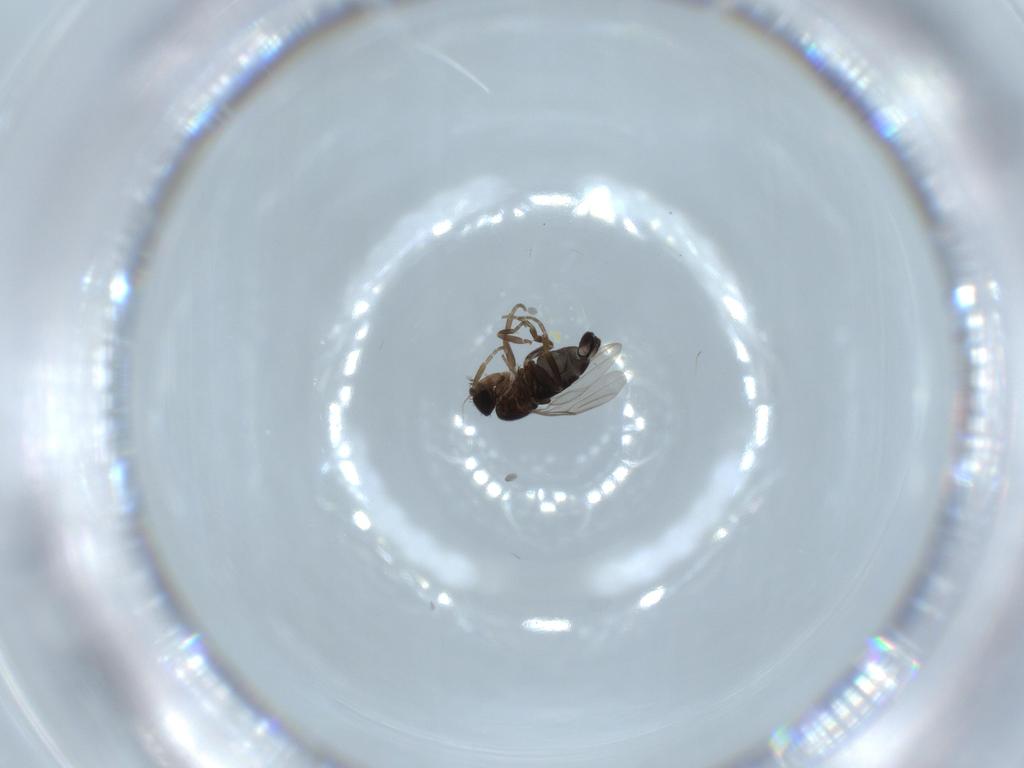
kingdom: Animalia
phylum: Arthropoda
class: Insecta
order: Diptera
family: Phoridae
